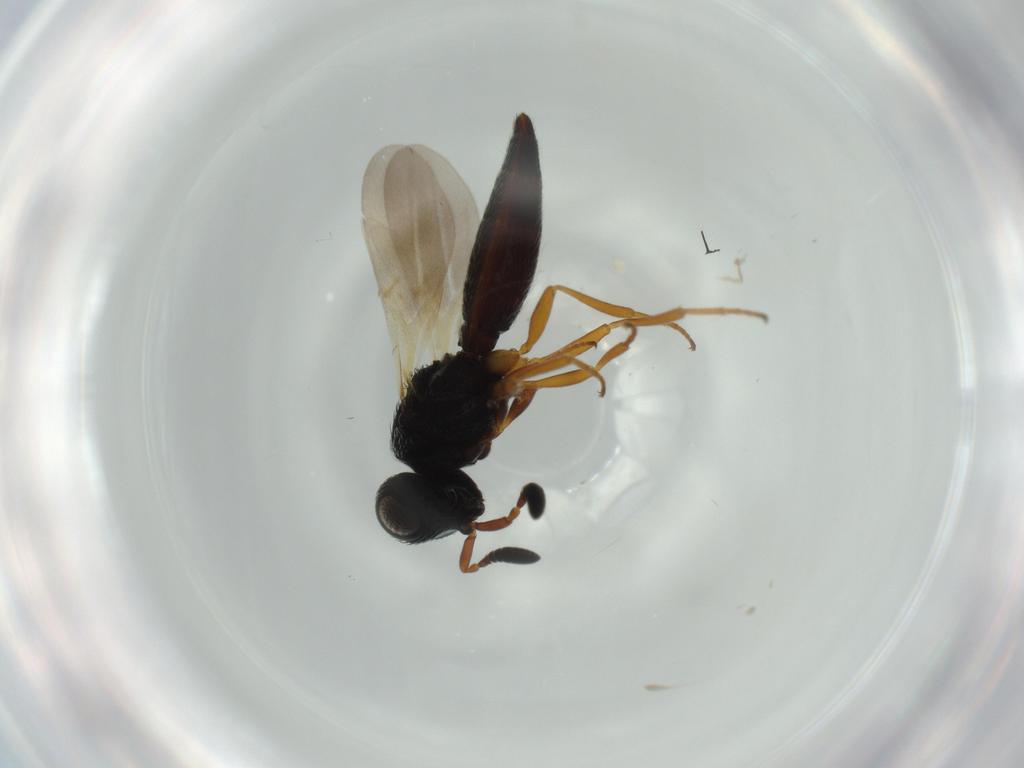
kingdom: Animalia
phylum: Arthropoda
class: Insecta
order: Hymenoptera
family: Scelionidae
